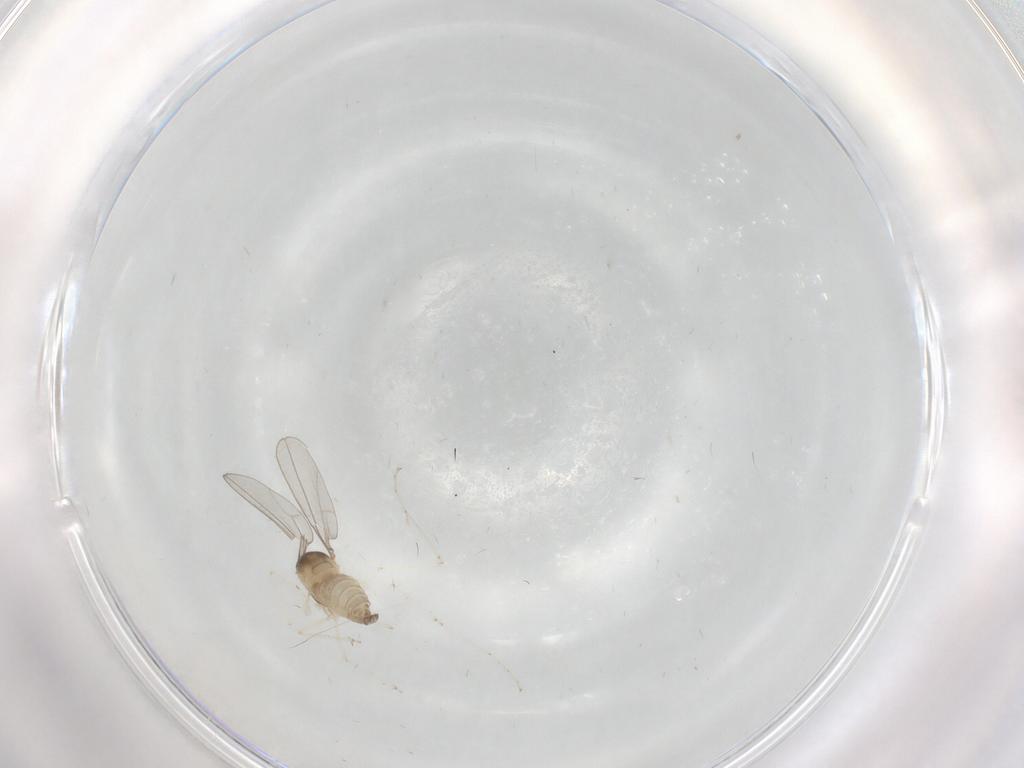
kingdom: Animalia
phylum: Arthropoda
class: Insecta
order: Diptera
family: Cecidomyiidae
